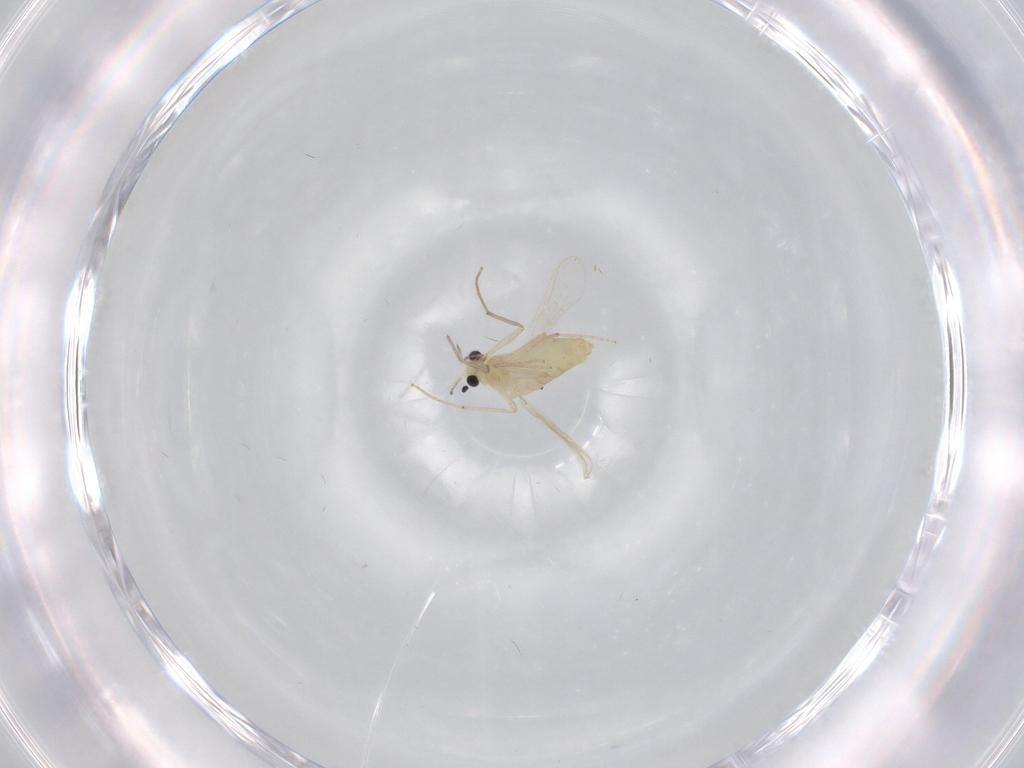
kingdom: Animalia
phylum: Arthropoda
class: Insecta
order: Diptera
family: Chironomidae
